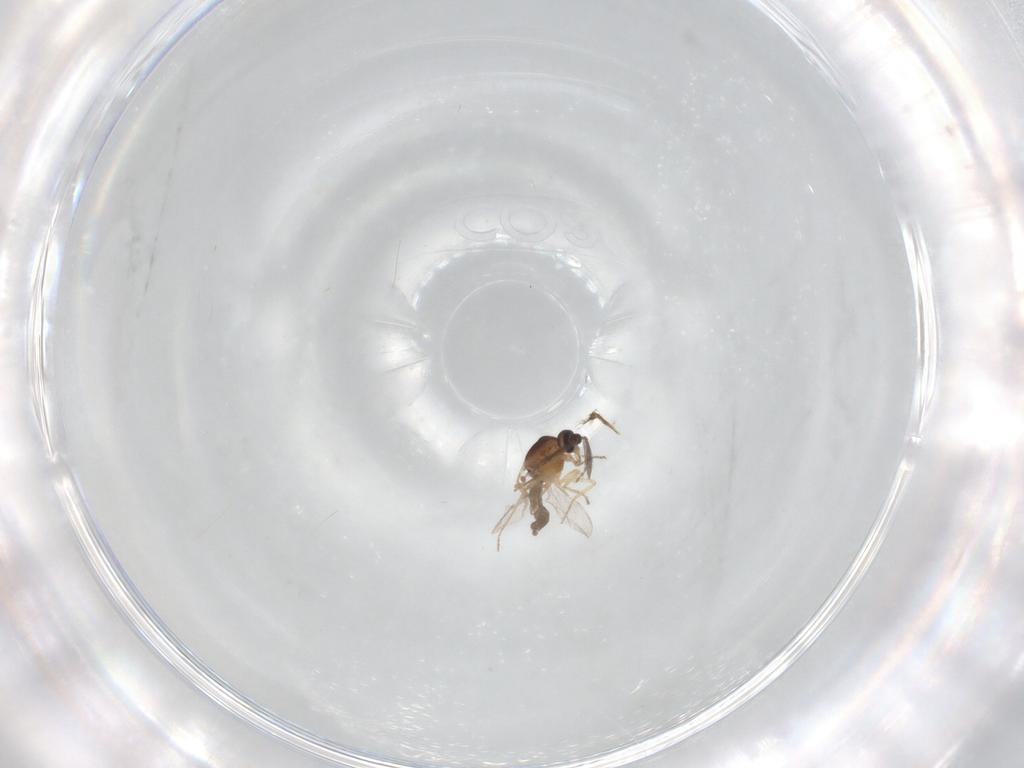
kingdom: Animalia
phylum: Arthropoda
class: Insecta
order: Diptera
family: Ceratopogonidae
